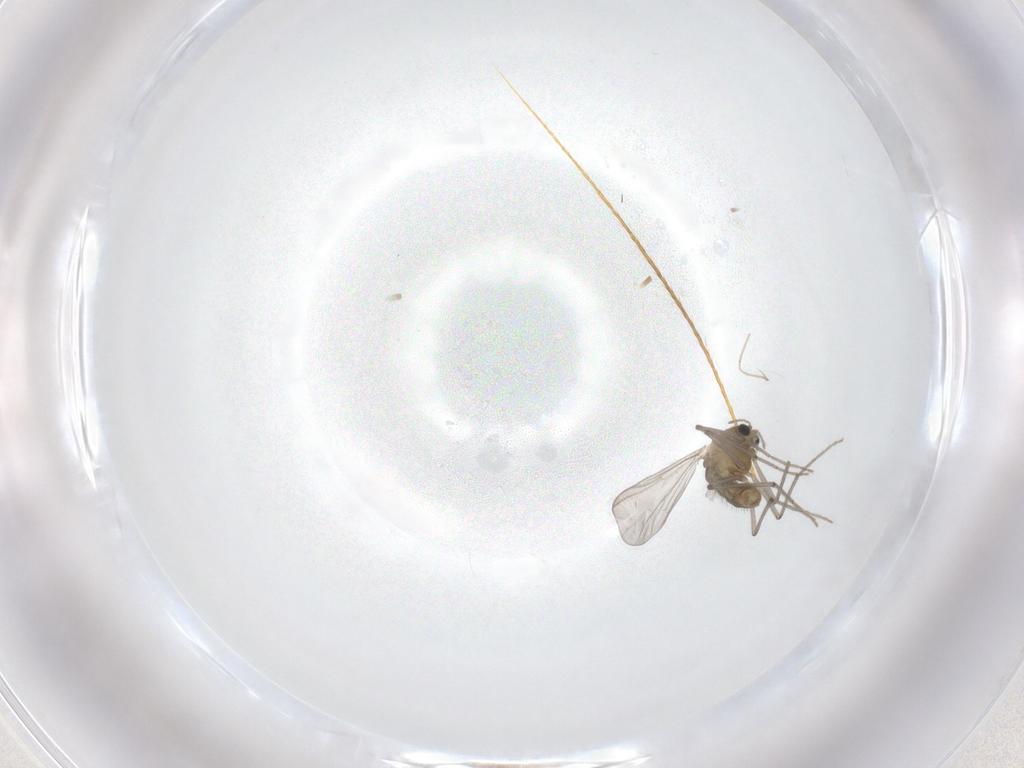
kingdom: Animalia
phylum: Arthropoda
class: Insecta
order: Diptera
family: Chironomidae
